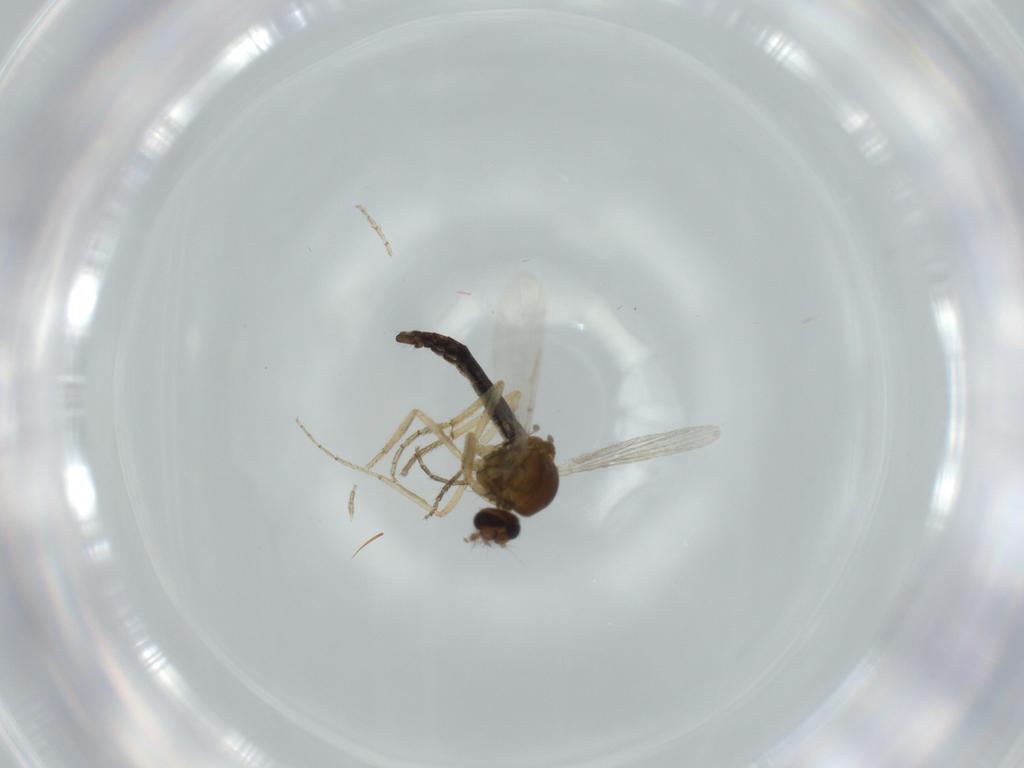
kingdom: Animalia
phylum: Arthropoda
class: Insecta
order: Diptera
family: Ceratopogonidae
